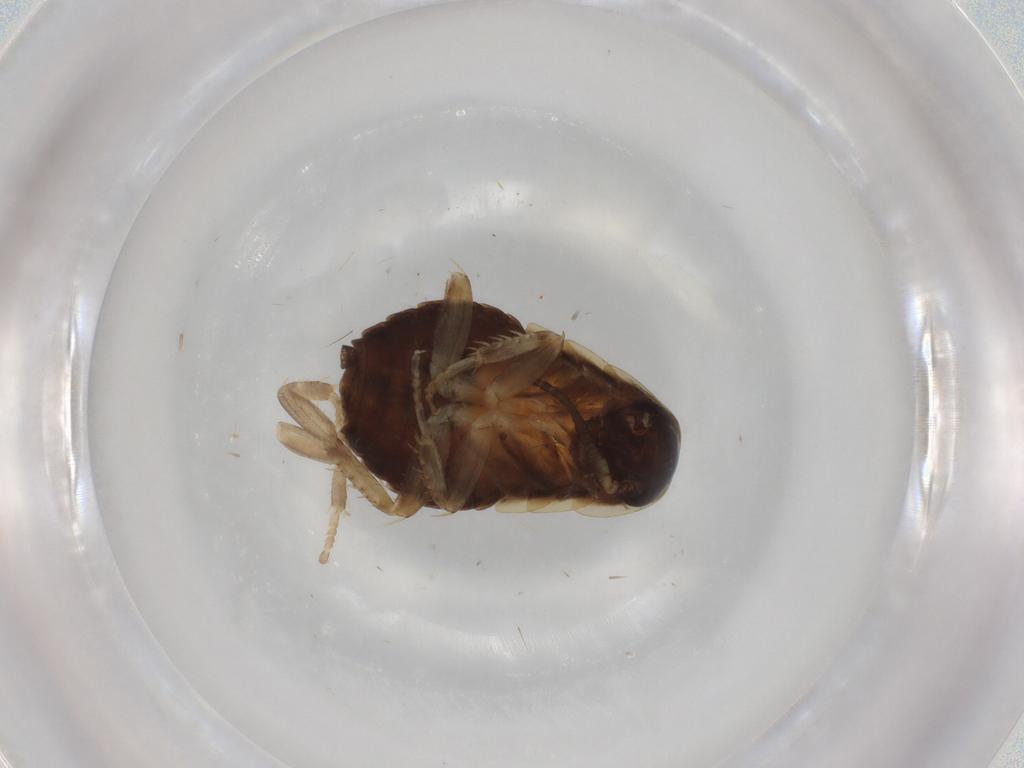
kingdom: Animalia
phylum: Arthropoda
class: Insecta
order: Blattodea
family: Ectobiidae
